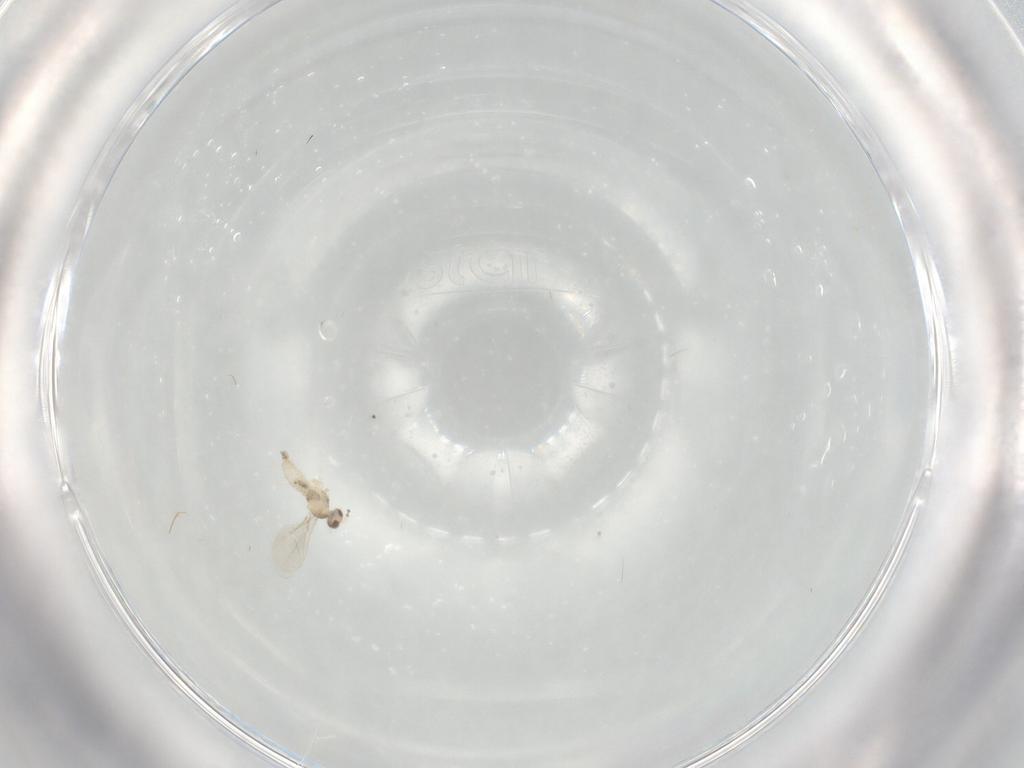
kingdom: Animalia
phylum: Arthropoda
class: Insecta
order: Diptera
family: Cecidomyiidae
